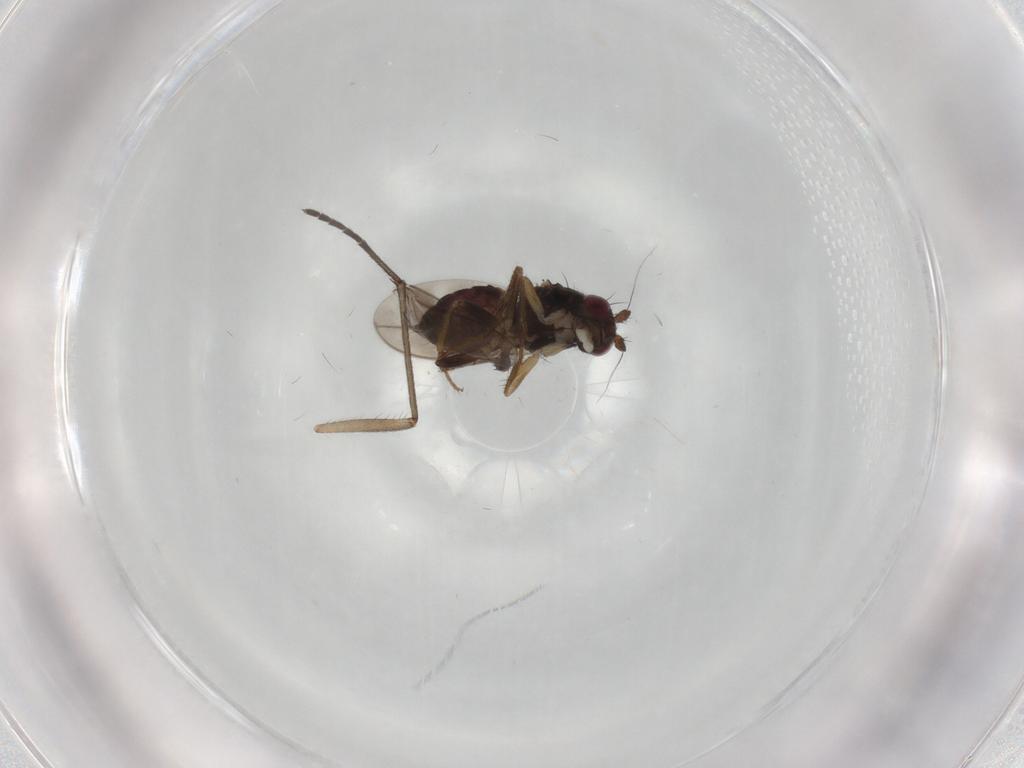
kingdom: Animalia
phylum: Arthropoda
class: Insecta
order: Diptera
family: Sphaeroceridae
